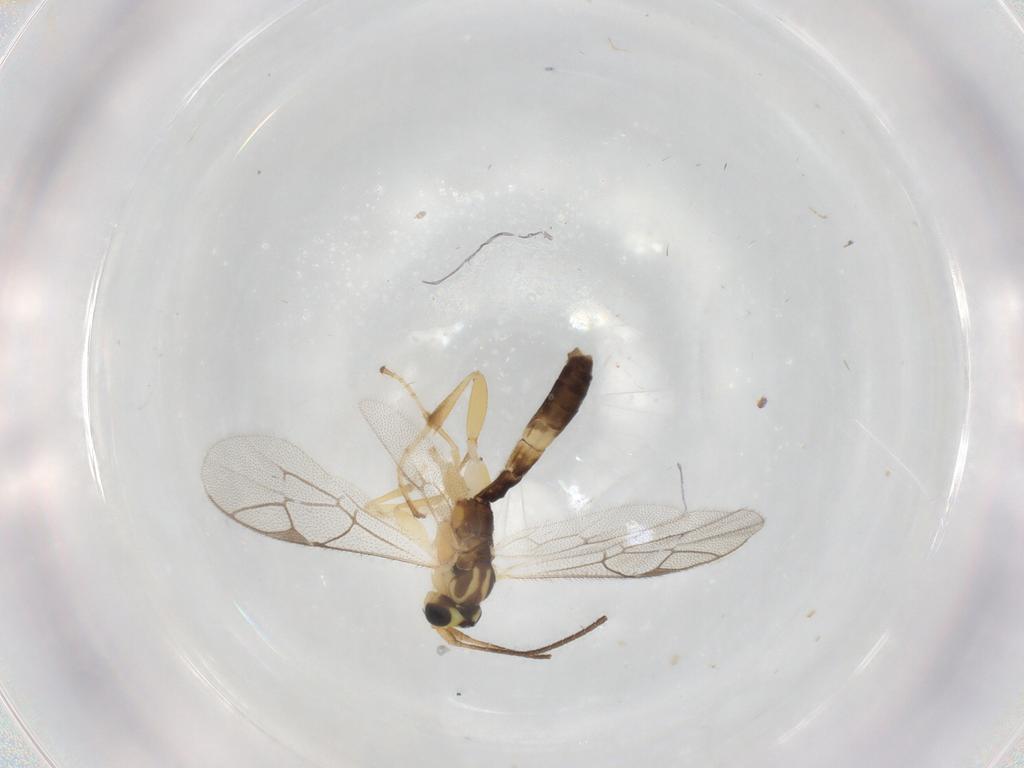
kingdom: Animalia
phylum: Arthropoda
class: Insecta
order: Hymenoptera
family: Ichneumonidae
